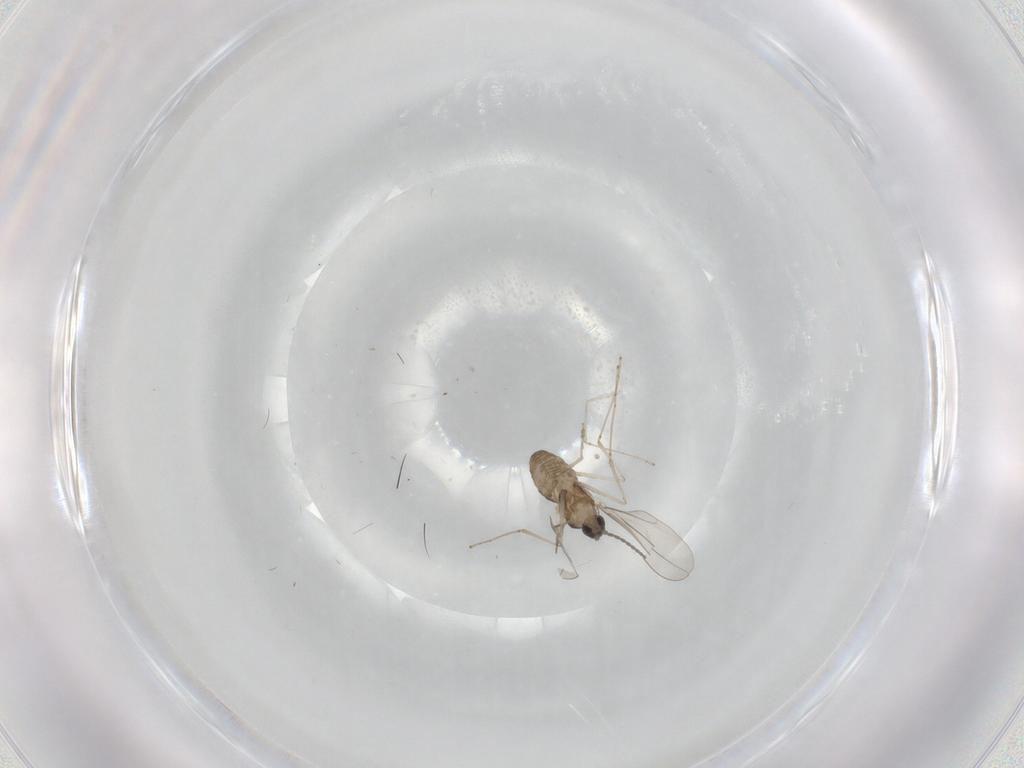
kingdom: Animalia
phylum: Arthropoda
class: Insecta
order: Diptera
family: Cecidomyiidae
